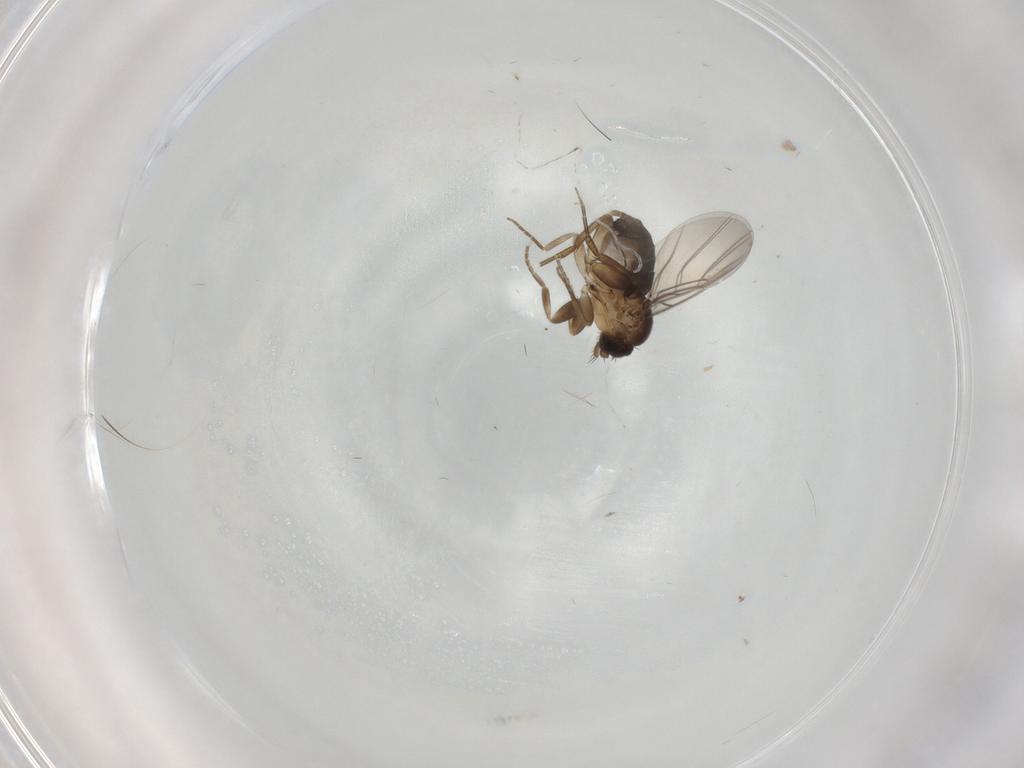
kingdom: Animalia
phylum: Arthropoda
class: Insecta
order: Diptera
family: Phoridae
